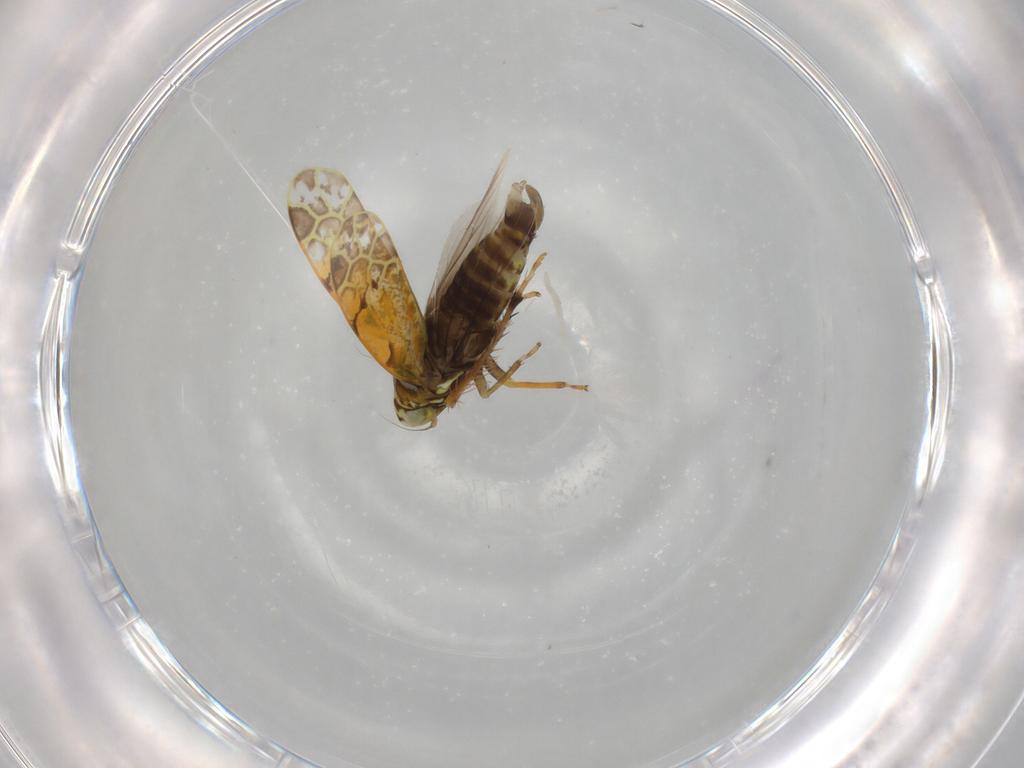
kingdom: Animalia
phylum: Arthropoda
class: Insecta
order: Hemiptera
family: Cicadellidae
